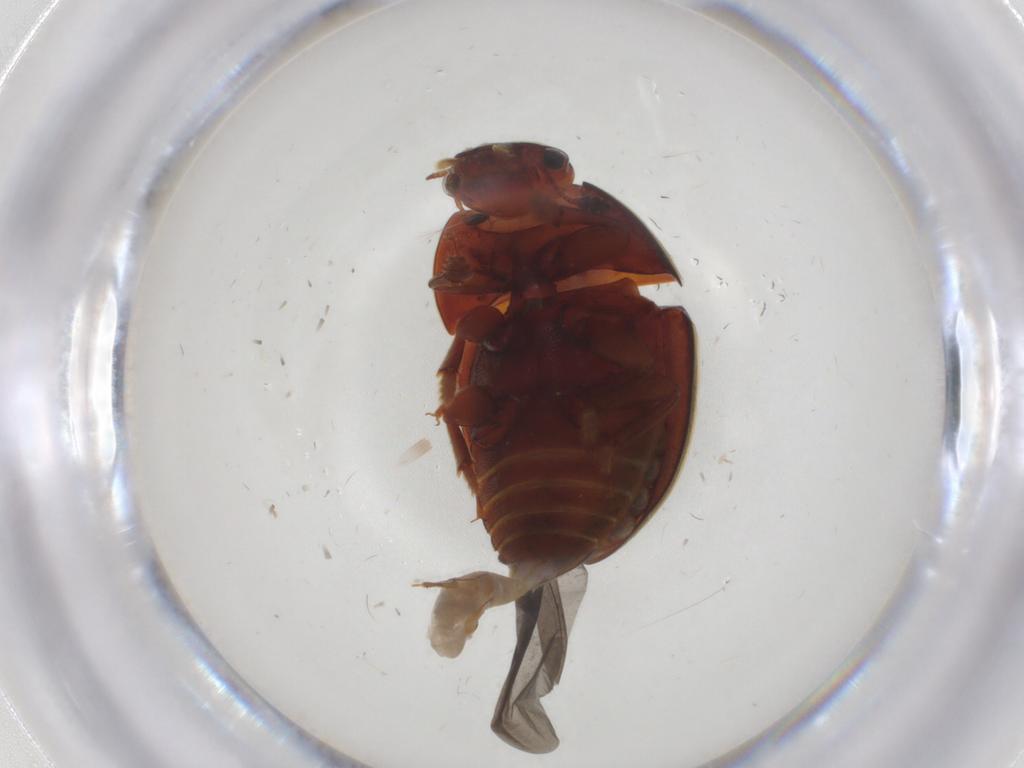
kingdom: Animalia
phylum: Arthropoda
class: Insecta
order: Coleoptera
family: Mordellidae
